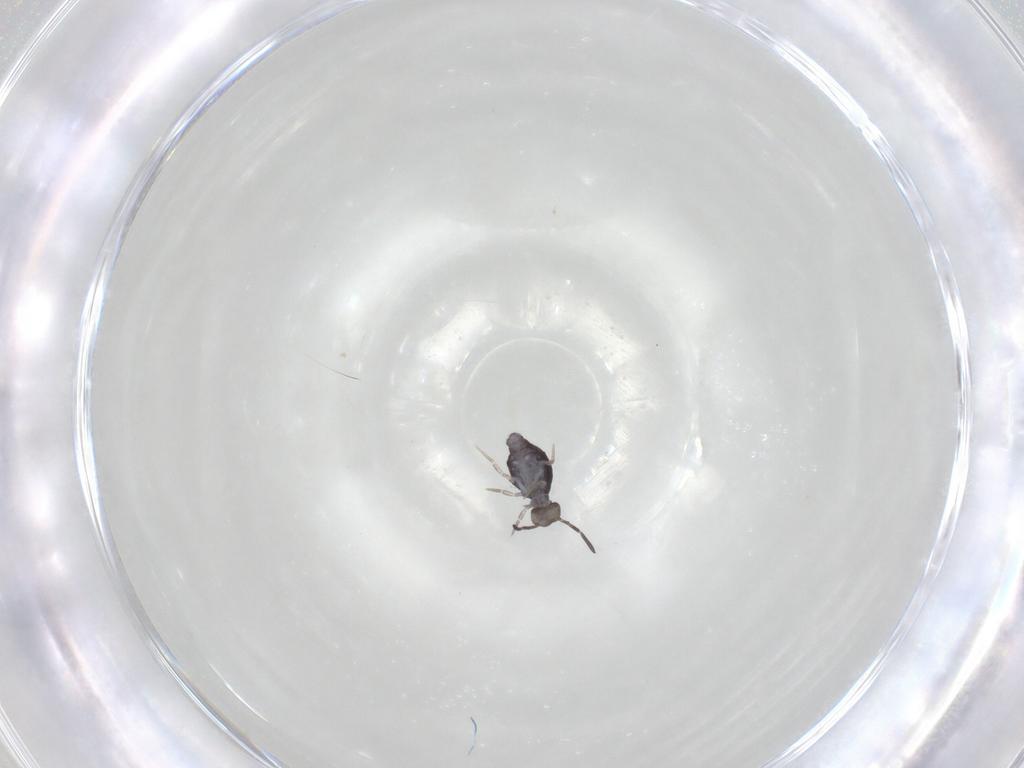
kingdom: Animalia
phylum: Arthropoda
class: Collembola
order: Symphypleona
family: Katiannidae
